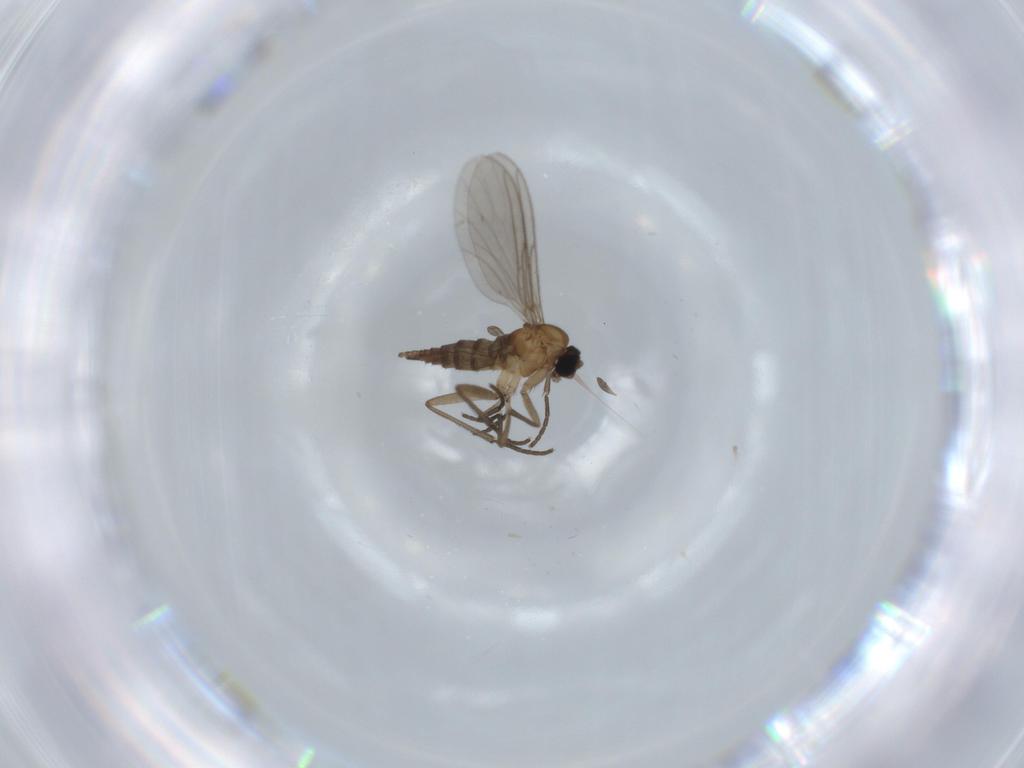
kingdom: Animalia
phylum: Arthropoda
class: Insecta
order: Diptera
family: Sciaridae
